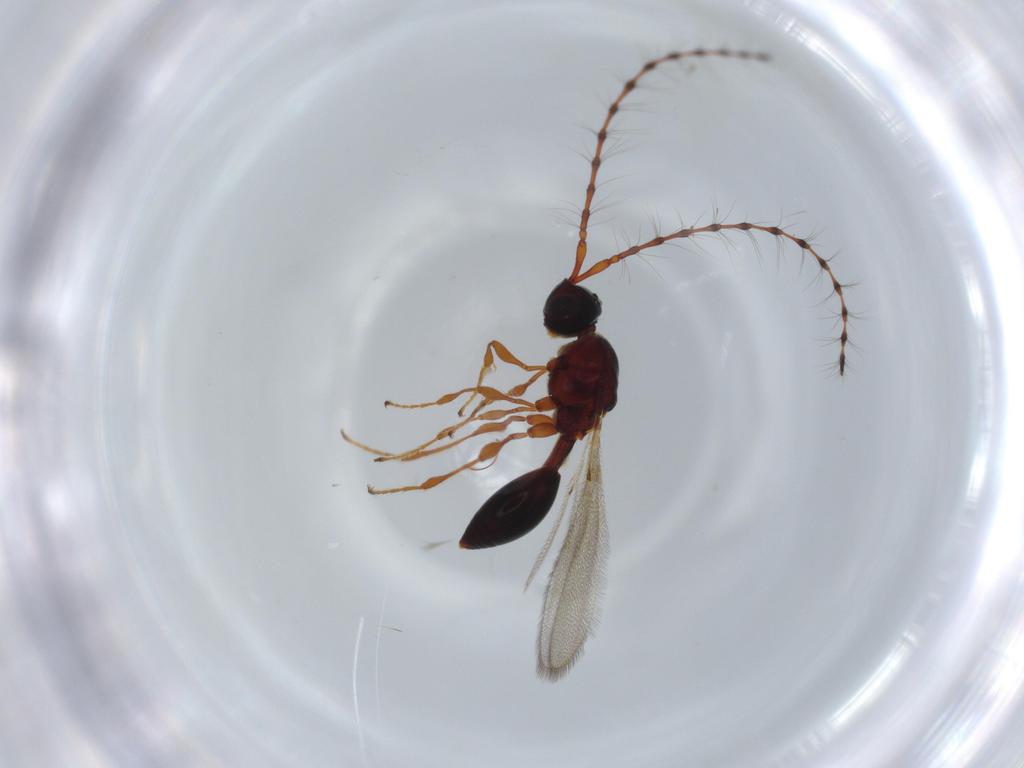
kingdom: Animalia
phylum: Arthropoda
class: Insecta
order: Hymenoptera
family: Diapriidae
